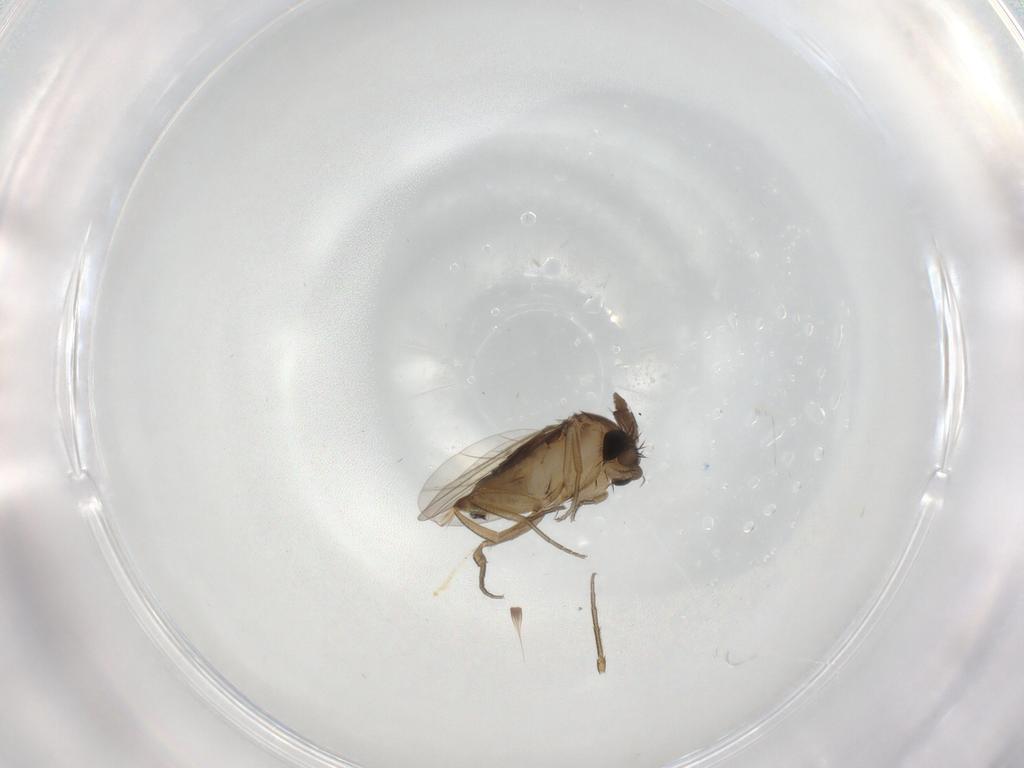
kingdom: Animalia
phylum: Arthropoda
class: Insecta
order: Diptera
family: Phoridae
